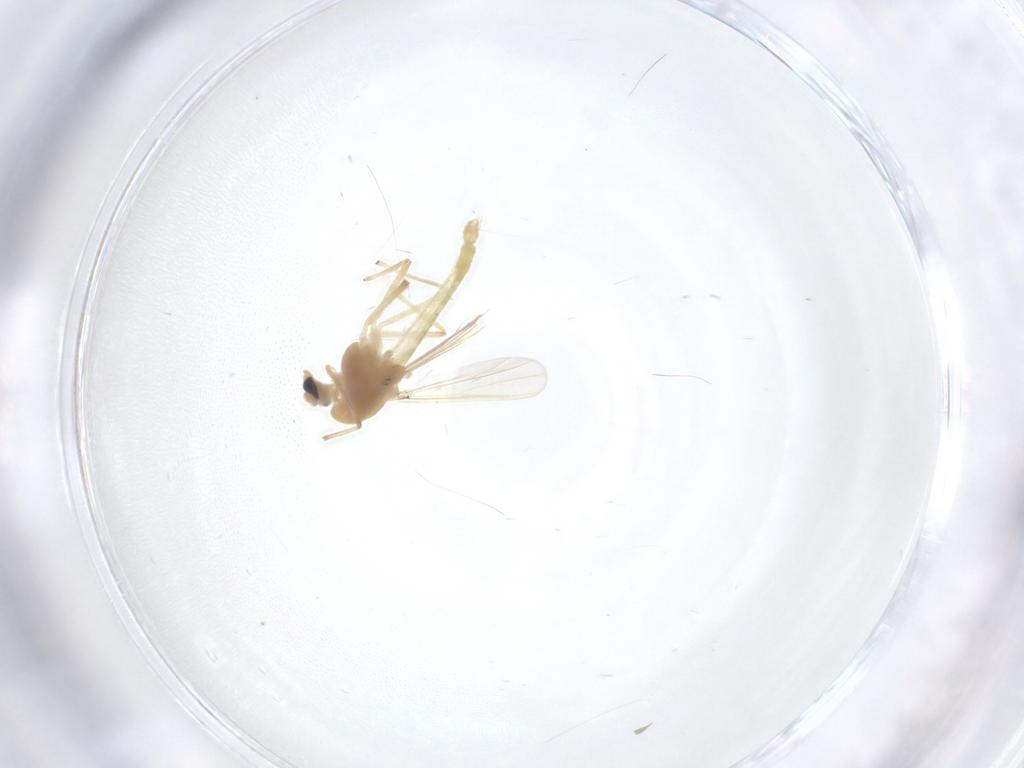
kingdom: Animalia
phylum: Arthropoda
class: Insecta
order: Diptera
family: Chironomidae
